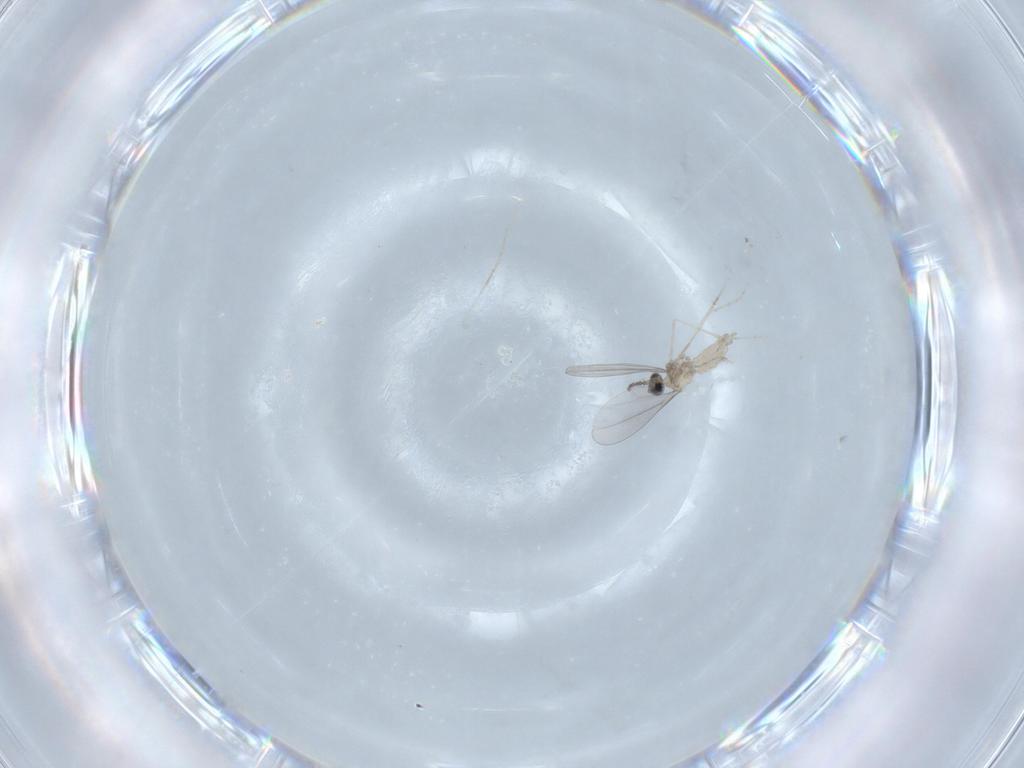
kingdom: Animalia
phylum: Arthropoda
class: Insecta
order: Diptera
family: Cecidomyiidae
